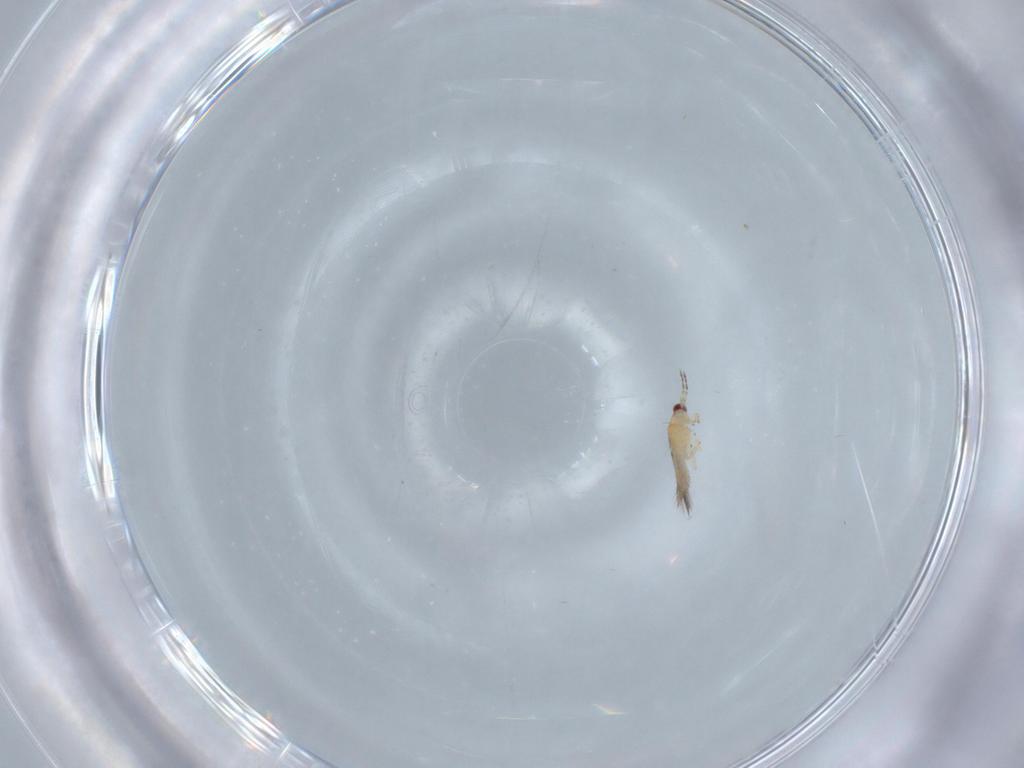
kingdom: Animalia
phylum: Arthropoda
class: Insecta
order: Thysanoptera
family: Thripidae
